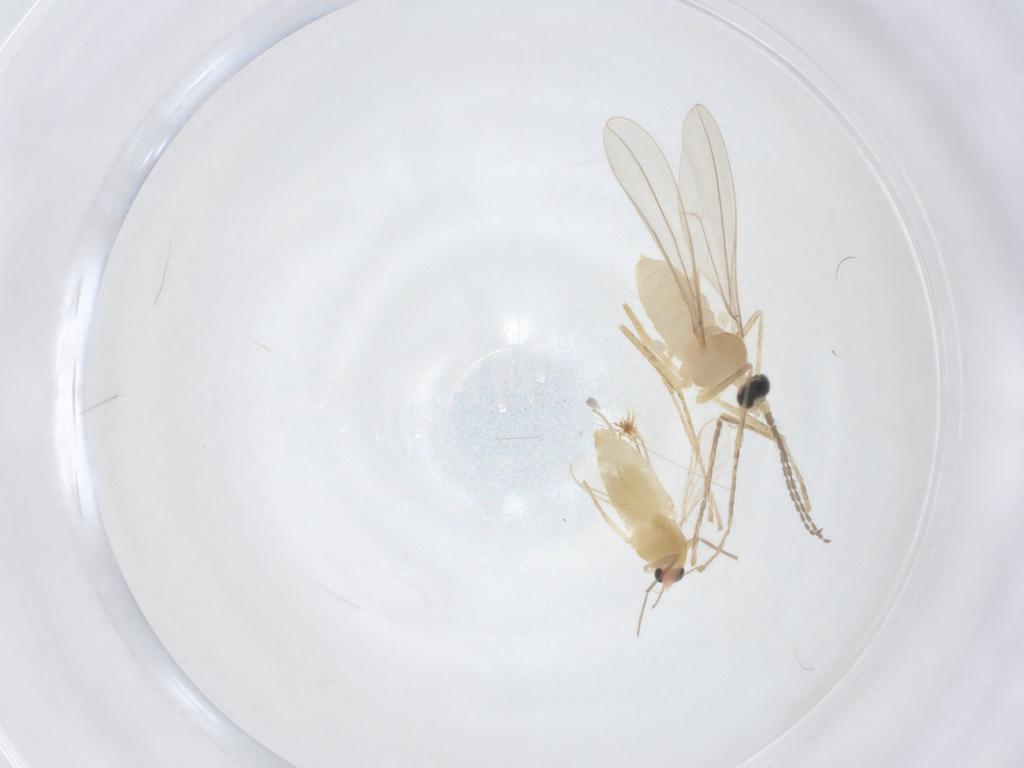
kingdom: Animalia
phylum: Arthropoda
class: Insecta
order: Diptera
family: Chironomidae
